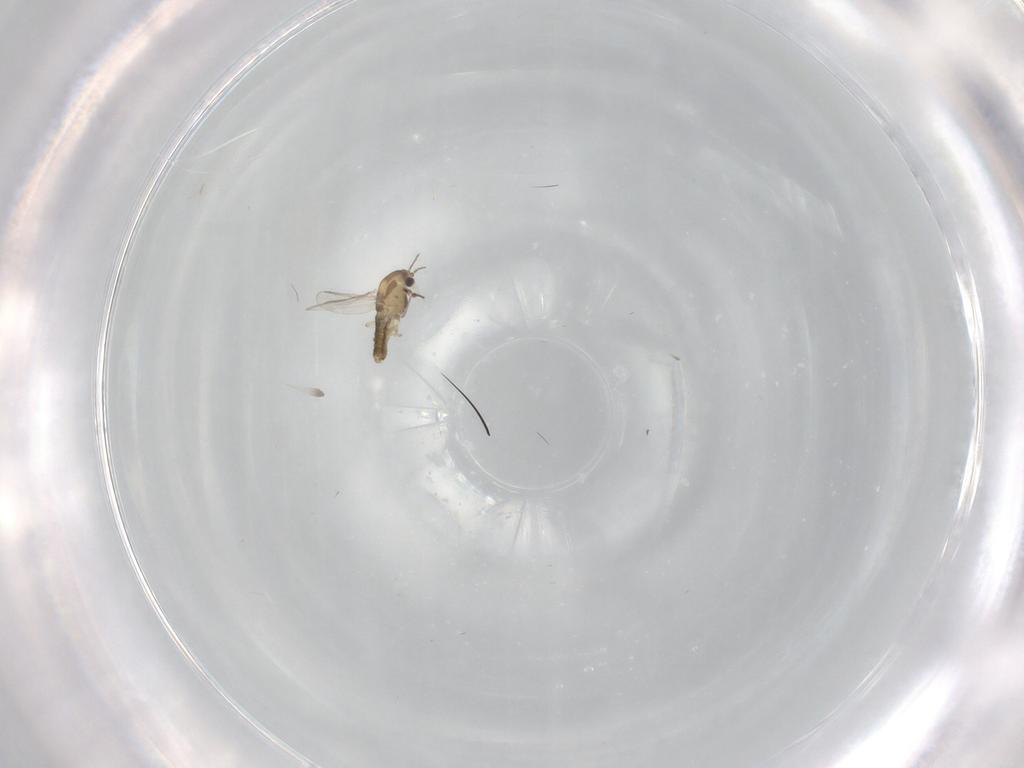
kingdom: Animalia
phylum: Arthropoda
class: Insecta
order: Diptera
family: Chironomidae
